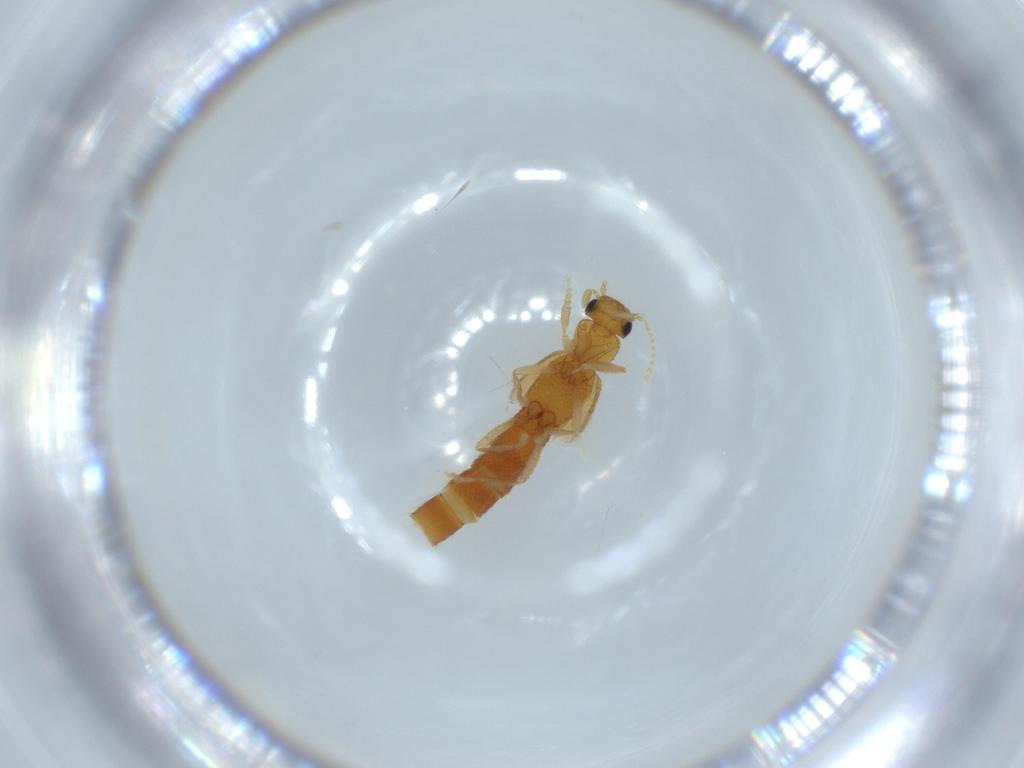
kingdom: Animalia
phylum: Arthropoda
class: Insecta
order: Coleoptera
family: Staphylinidae
